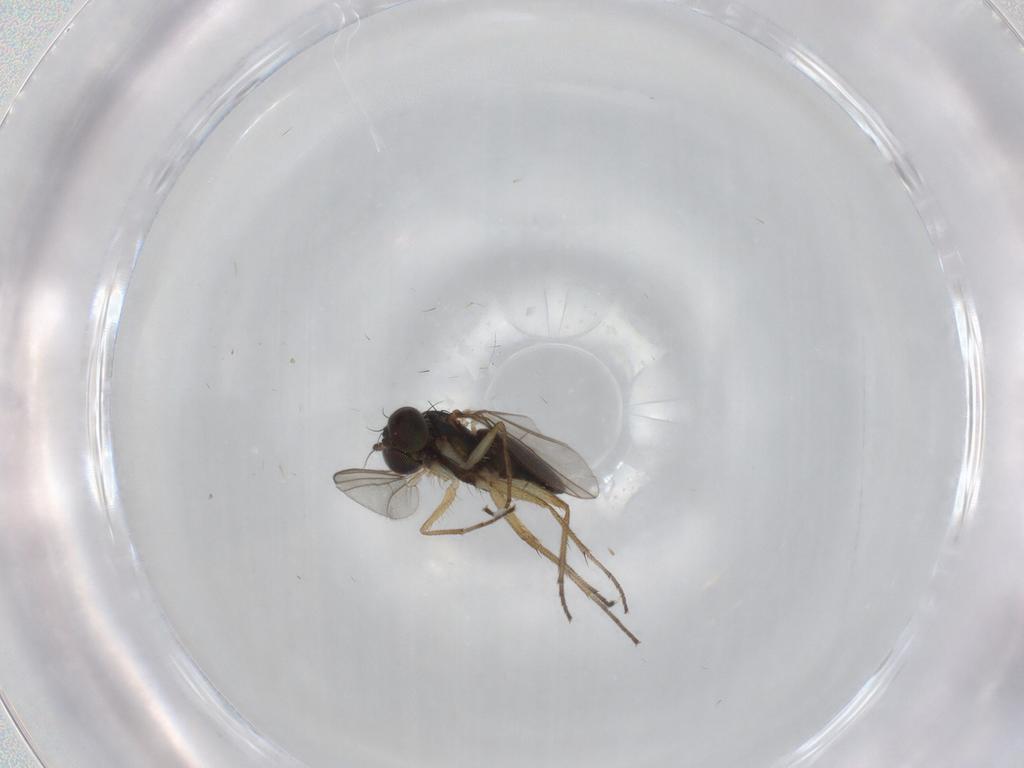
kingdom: Animalia
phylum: Arthropoda
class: Insecta
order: Diptera
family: Dolichopodidae
